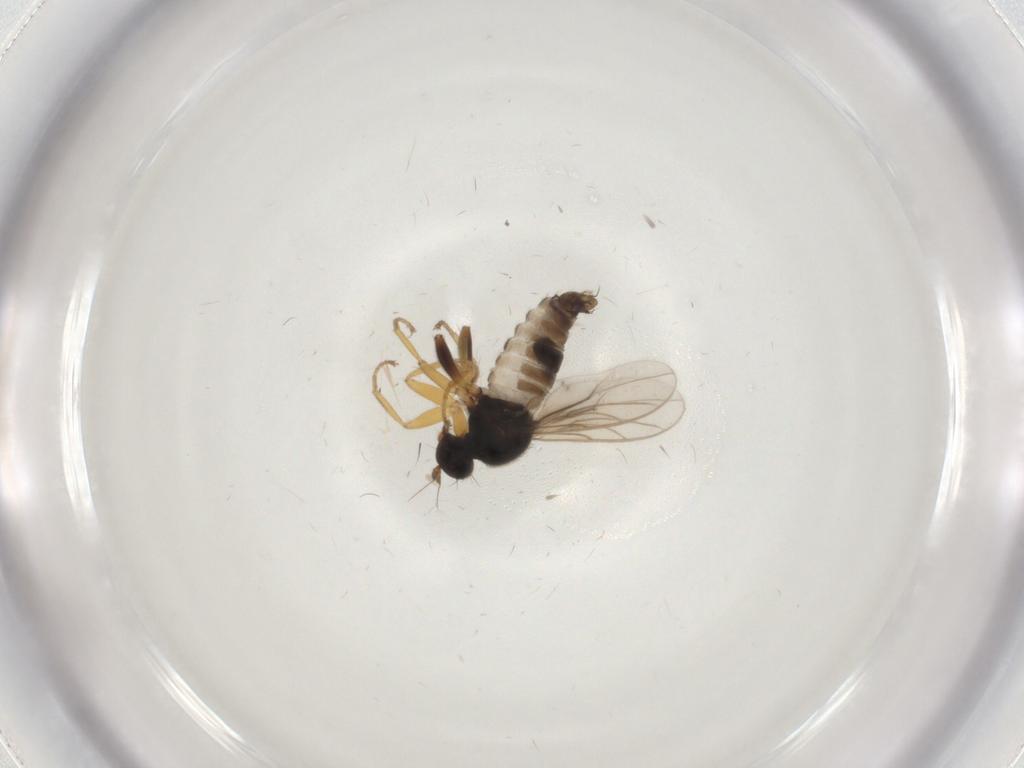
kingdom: Animalia
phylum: Arthropoda
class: Insecta
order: Diptera
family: Hybotidae
